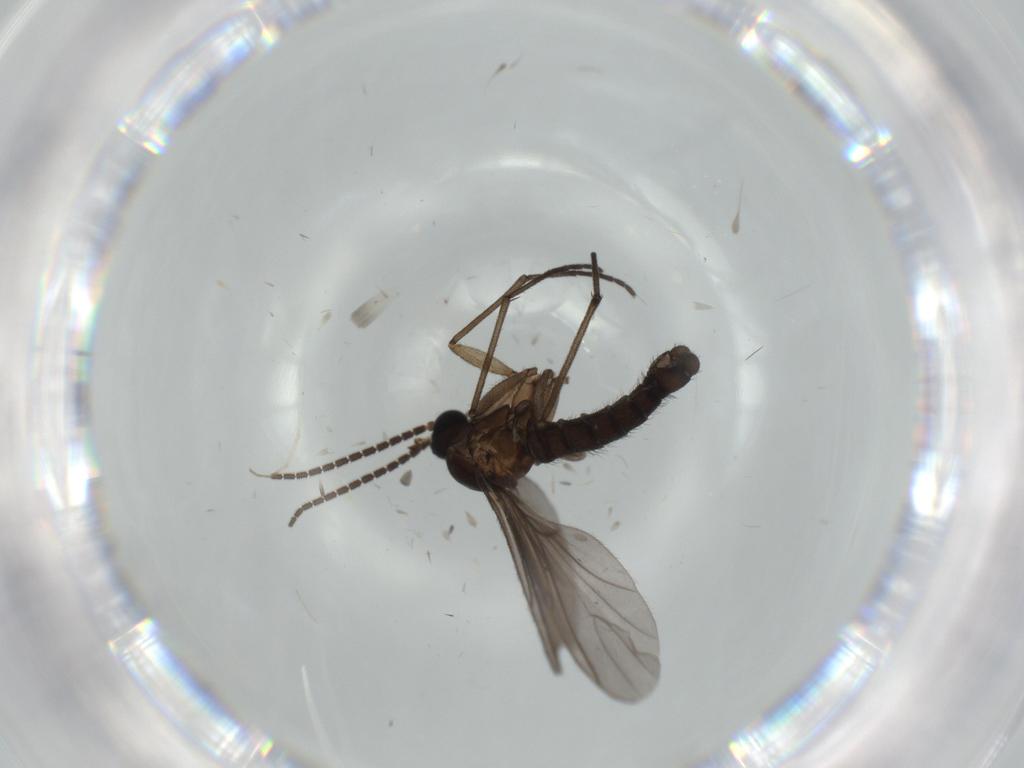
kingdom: Animalia
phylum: Arthropoda
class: Insecta
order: Diptera
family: Sciaridae
